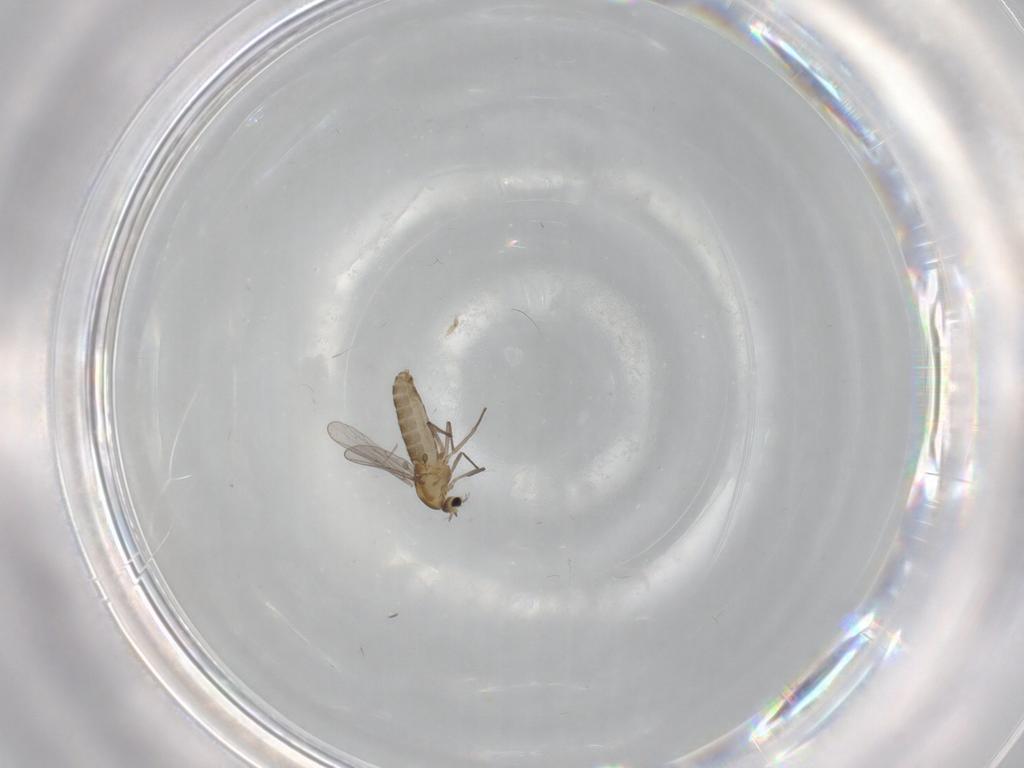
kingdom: Animalia
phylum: Arthropoda
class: Insecta
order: Diptera
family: Chironomidae
